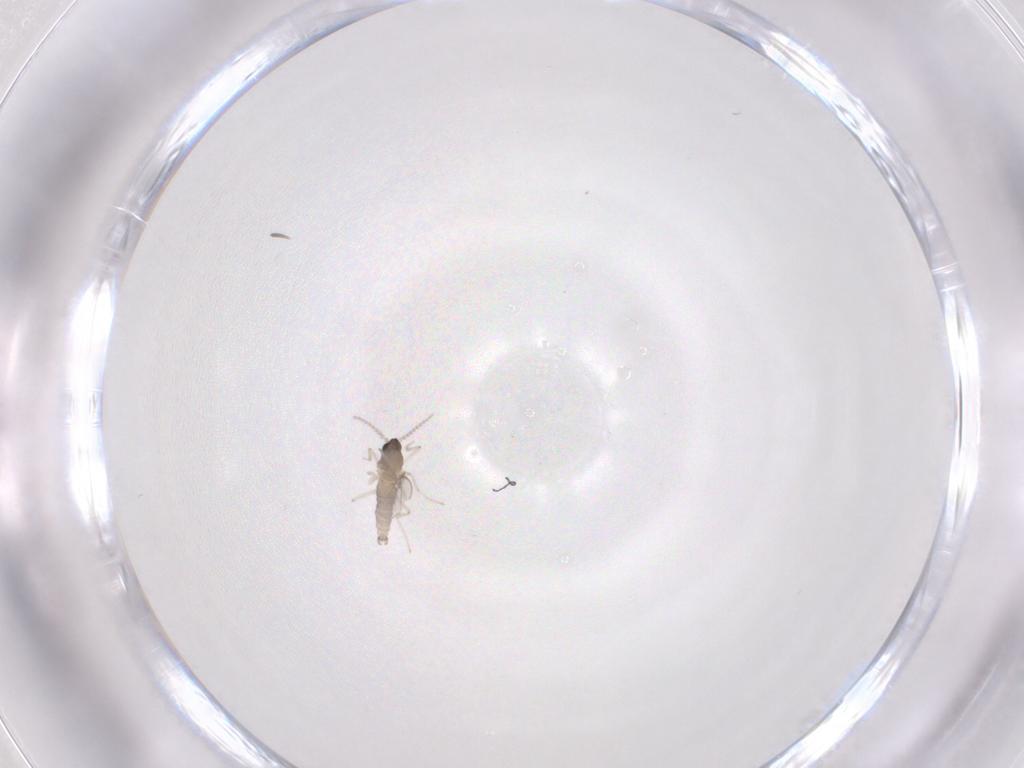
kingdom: Animalia
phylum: Arthropoda
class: Insecta
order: Diptera
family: Cecidomyiidae
